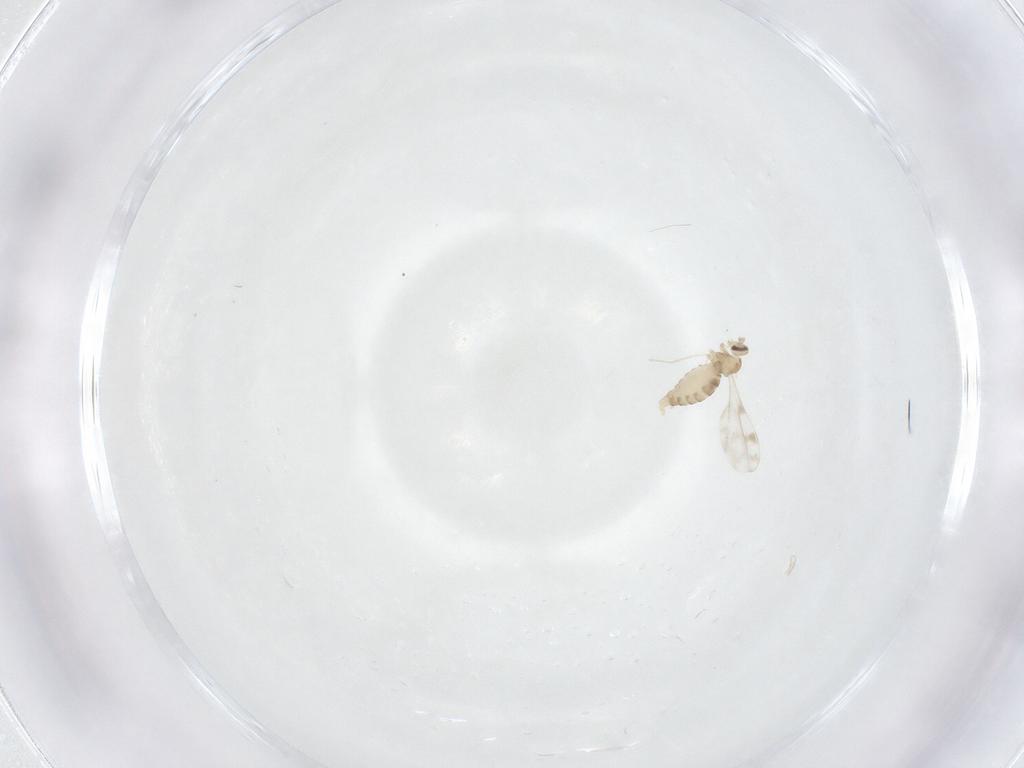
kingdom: Animalia
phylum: Arthropoda
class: Insecta
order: Diptera
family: Cecidomyiidae
